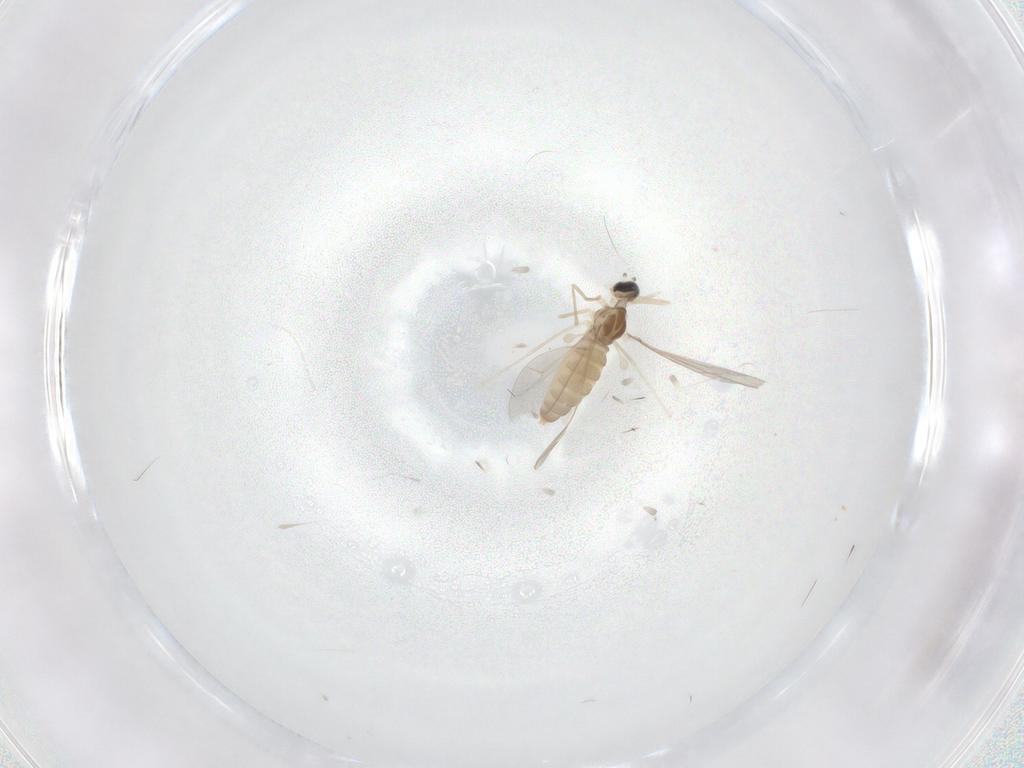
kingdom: Animalia
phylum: Arthropoda
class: Insecta
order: Diptera
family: Cecidomyiidae
